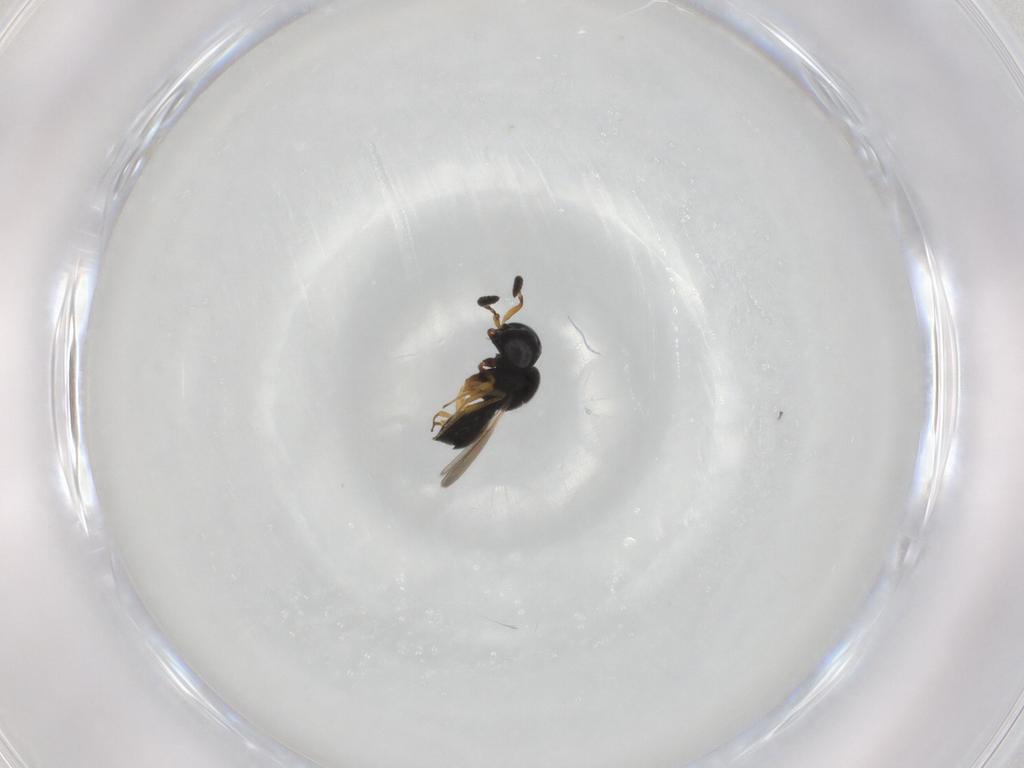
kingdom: Animalia
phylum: Arthropoda
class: Insecta
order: Hymenoptera
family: Scelionidae
